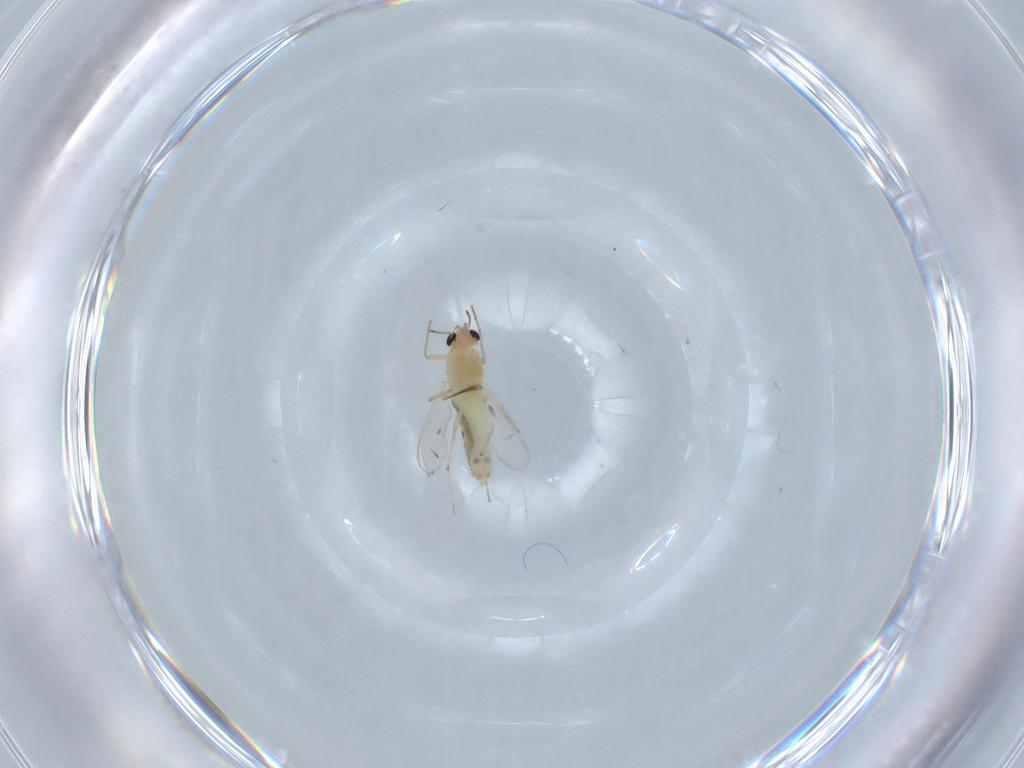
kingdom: Animalia
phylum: Arthropoda
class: Insecta
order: Diptera
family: Chironomidae
